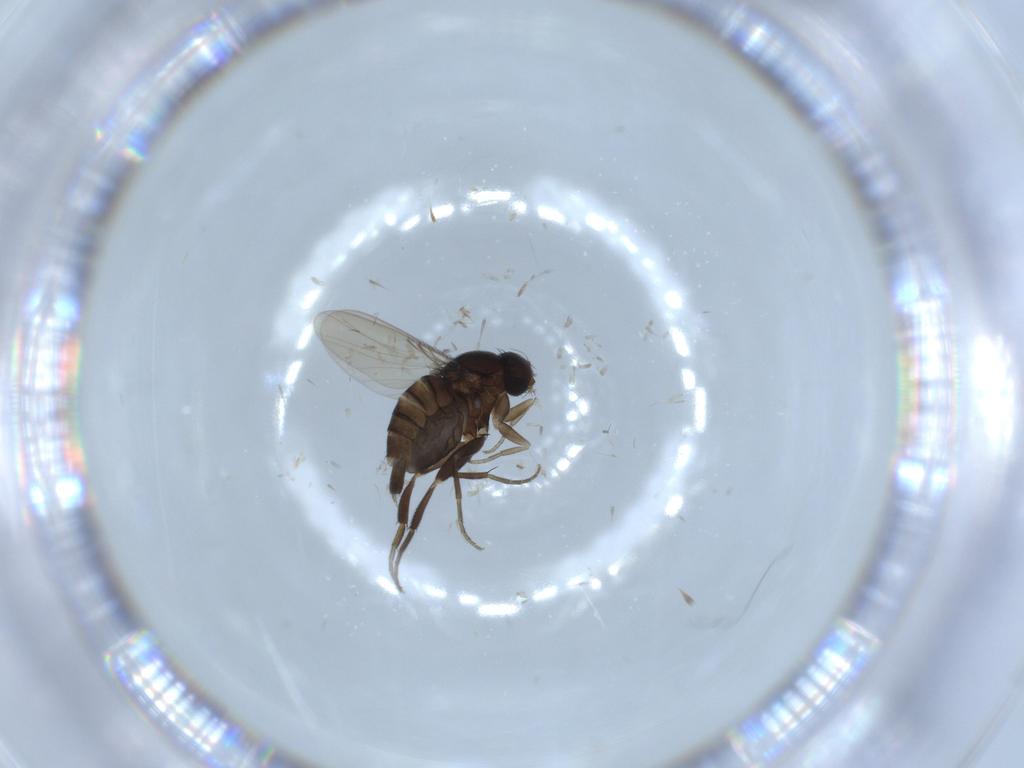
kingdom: Animalia
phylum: Arthropoda
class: Insecta
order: Diptera
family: Phoridae
